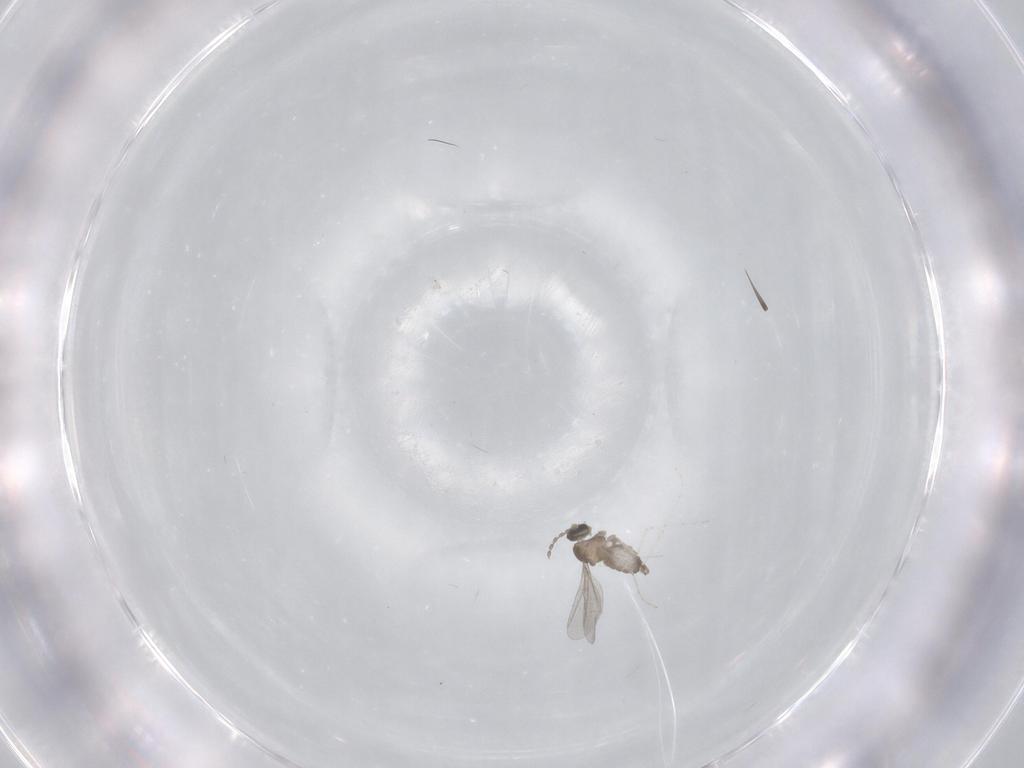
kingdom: Animalia
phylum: Arthropoda
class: Insecta
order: Diptera
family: Cecidomyiidae
